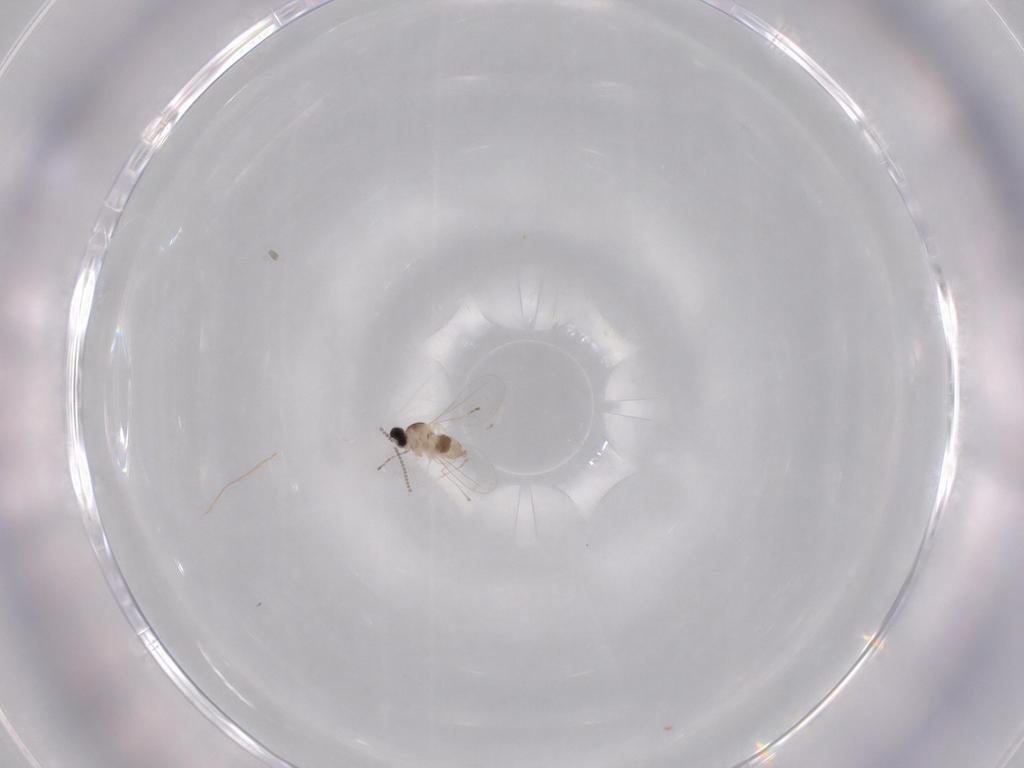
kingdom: Animalia
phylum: Arthropoda
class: Insecta
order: Diptera
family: Cecidomyiidae
